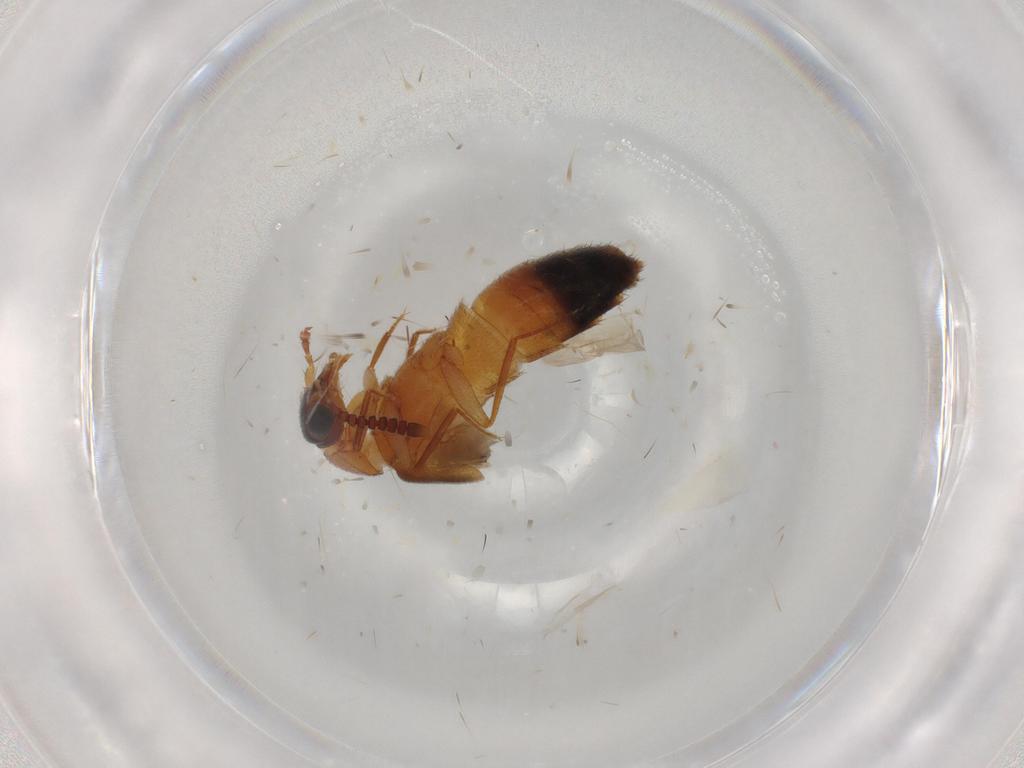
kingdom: Animalia
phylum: Arthropoda
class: Insecta
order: Coleoptera
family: Staphylinidae
